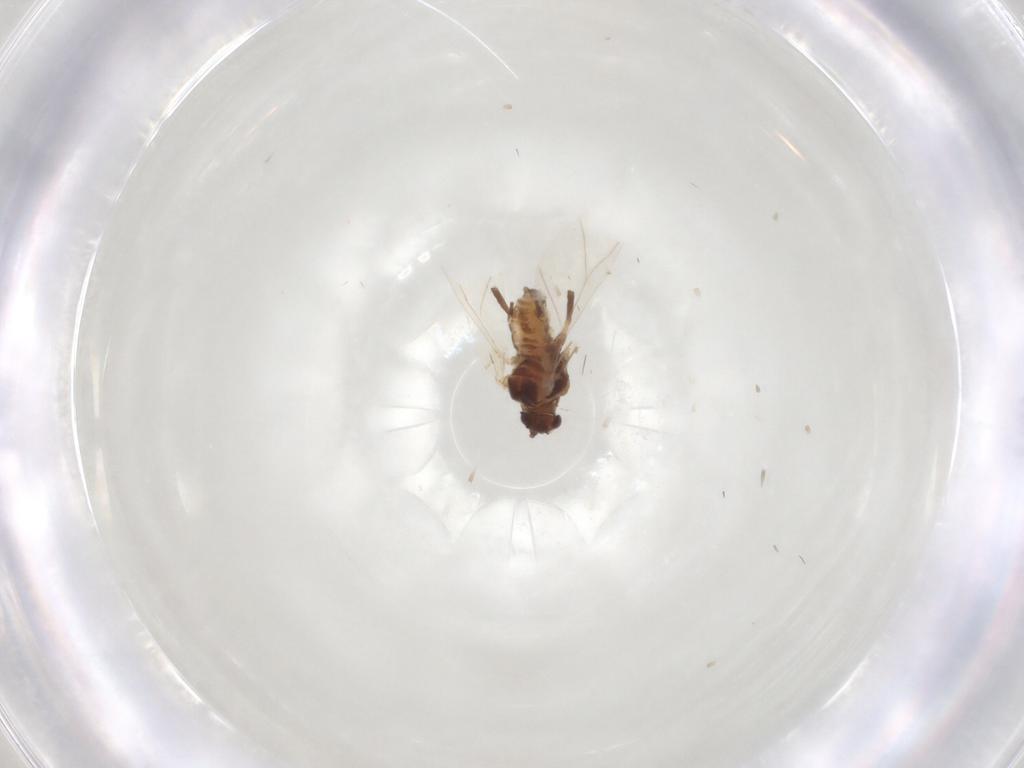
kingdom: Animalia
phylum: Arthropoda
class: Insecta
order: Hemiptera
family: Aphididae
